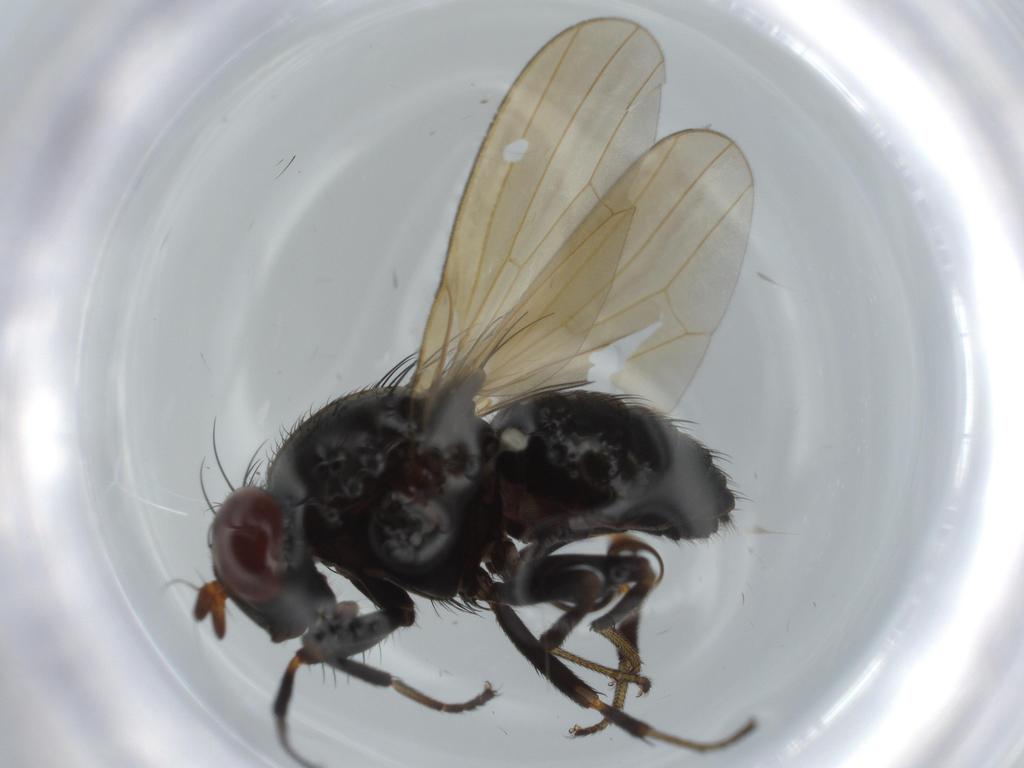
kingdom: Animalia
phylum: Arthropoda
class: Insecta
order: Diptera
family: Lauxaniidae
